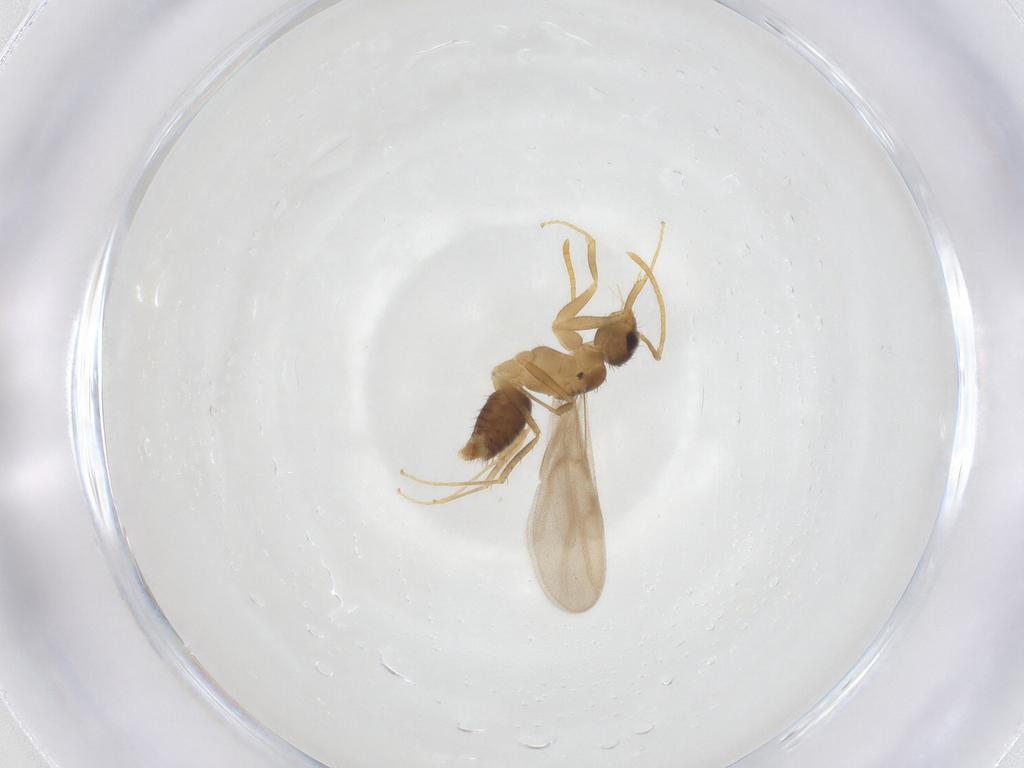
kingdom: Animalia
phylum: Arthropoda
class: Insecta
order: Hymenoptera
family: Formicidae
